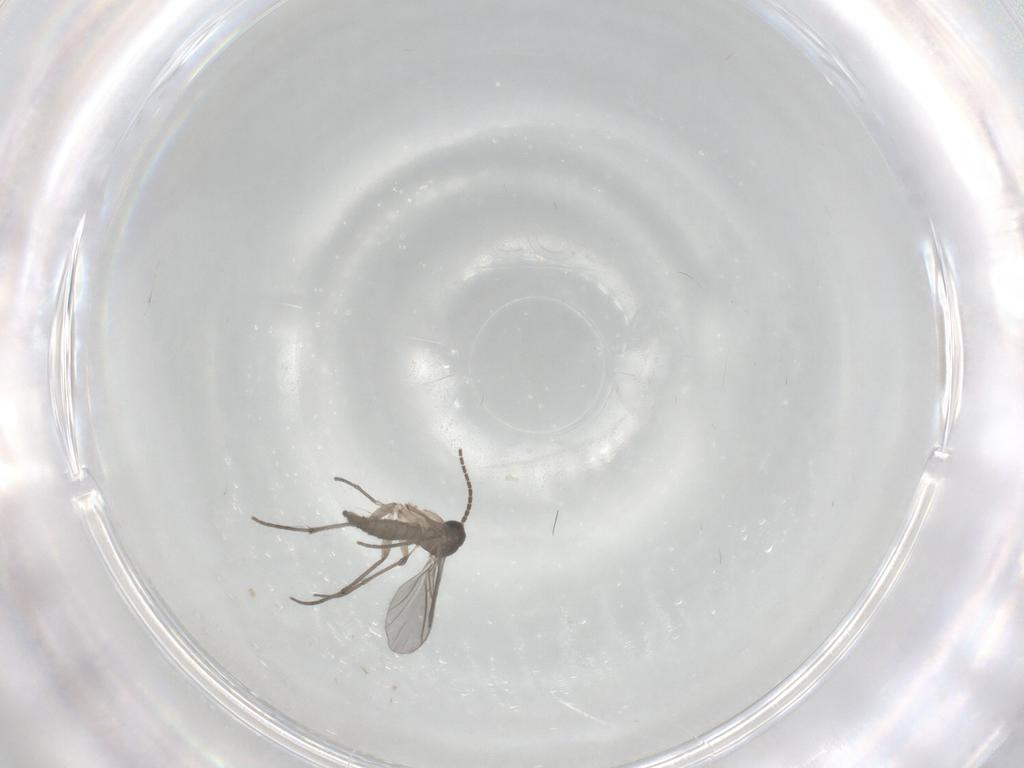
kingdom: Animalia
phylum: Arthropoda
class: Insecta
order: Diptera
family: Sciaridae
